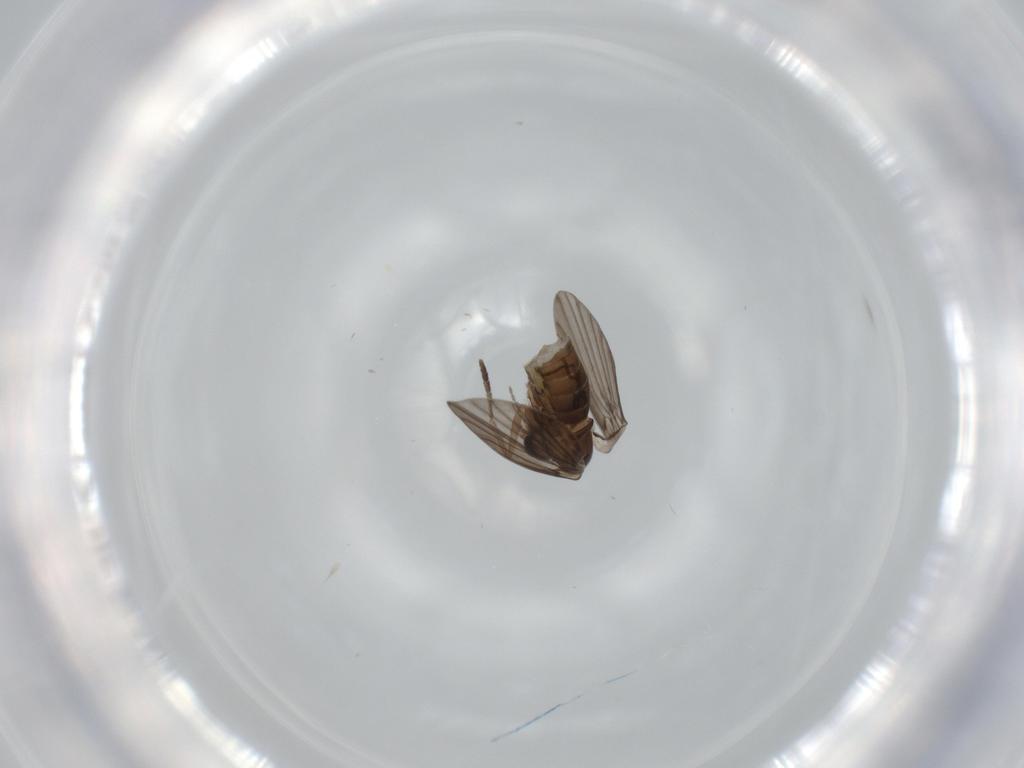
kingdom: Animalia
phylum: Arthropoda
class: Insecta
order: Diptera
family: Psychodidae
